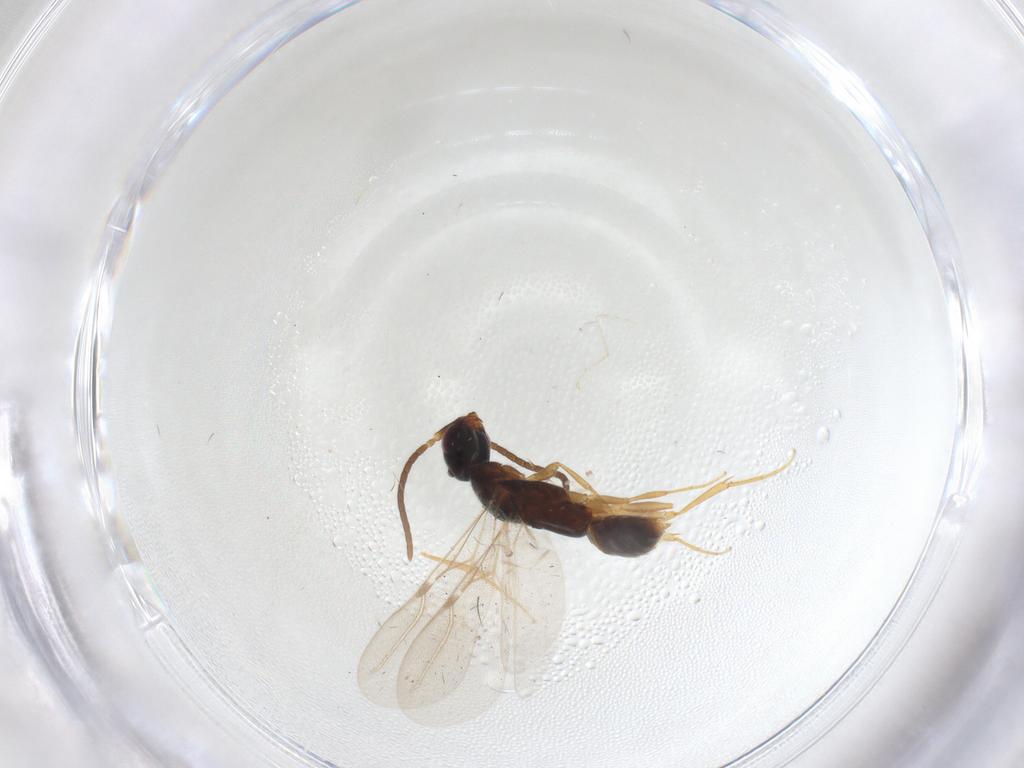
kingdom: Animalia
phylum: Arthropoda
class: Insecta
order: Hymenoptera
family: Bethylidae
